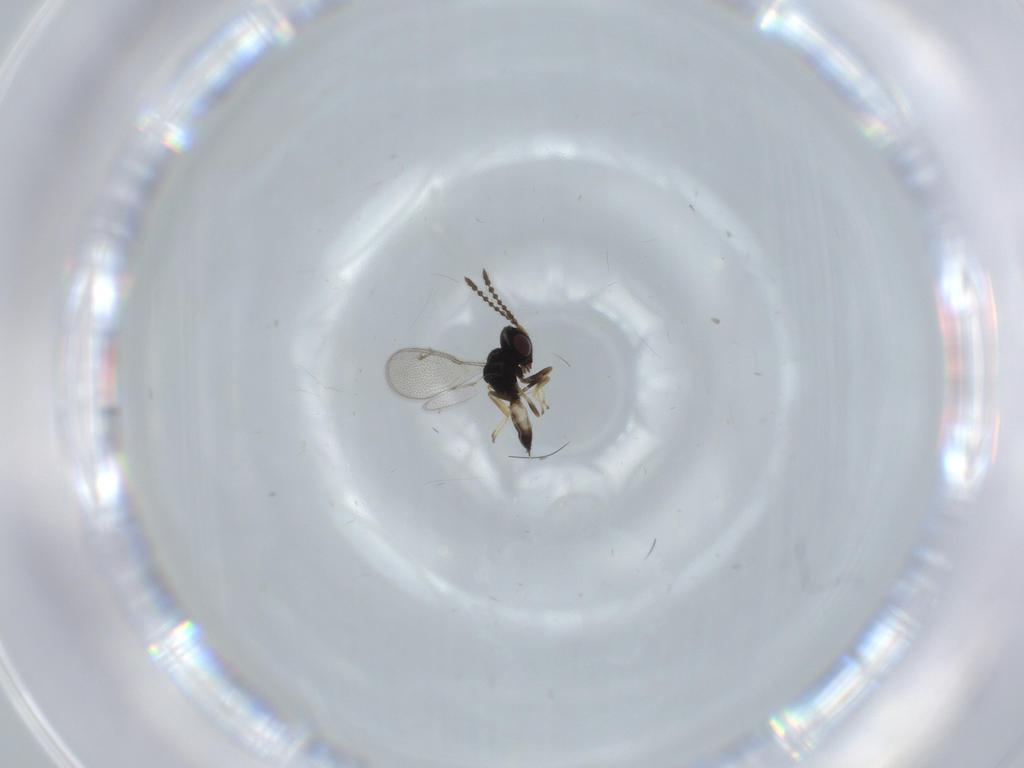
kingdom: Animalia
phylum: Arthropoda
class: Insecta
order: Hymenoptera
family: Pteromalidae
